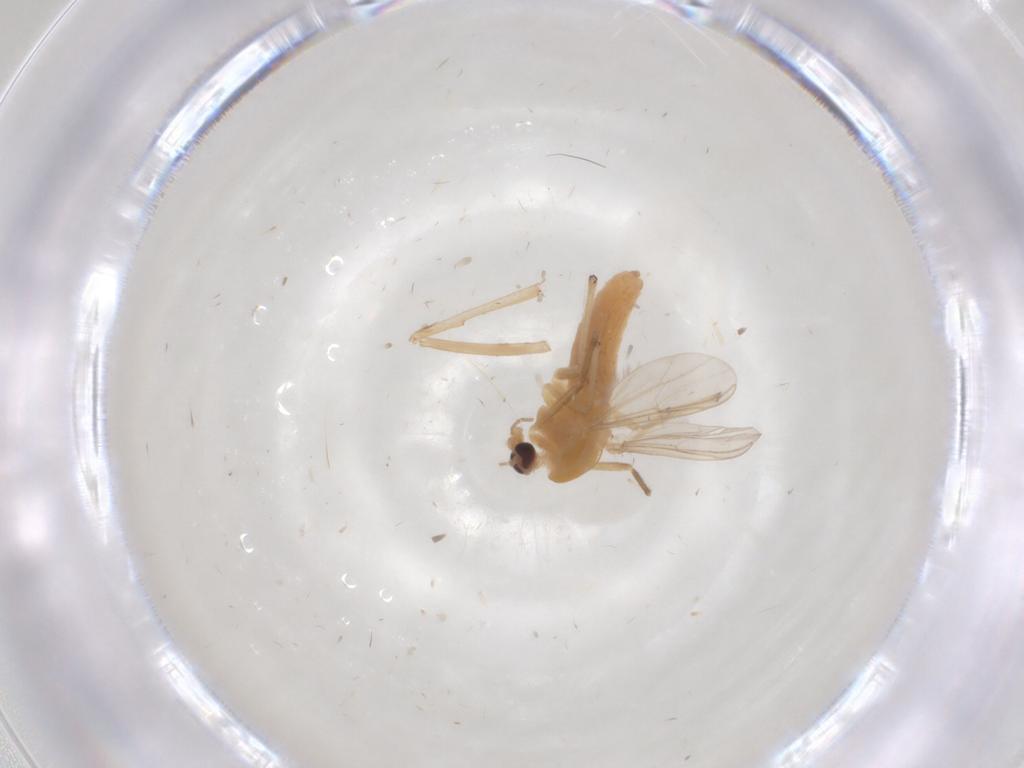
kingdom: Animalia
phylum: Arthropoda
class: Insecta
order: Diptera
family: Chironomidae
